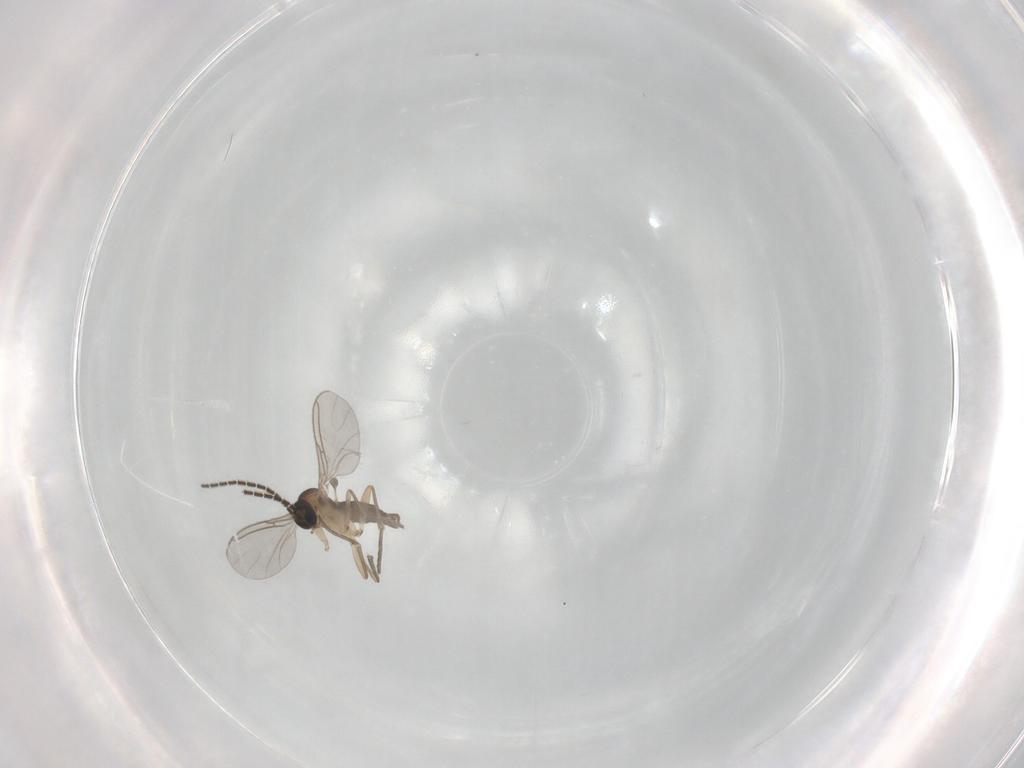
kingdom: Animalia
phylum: Arthropoda
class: Insecta
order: Diptera
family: Sciaridae
